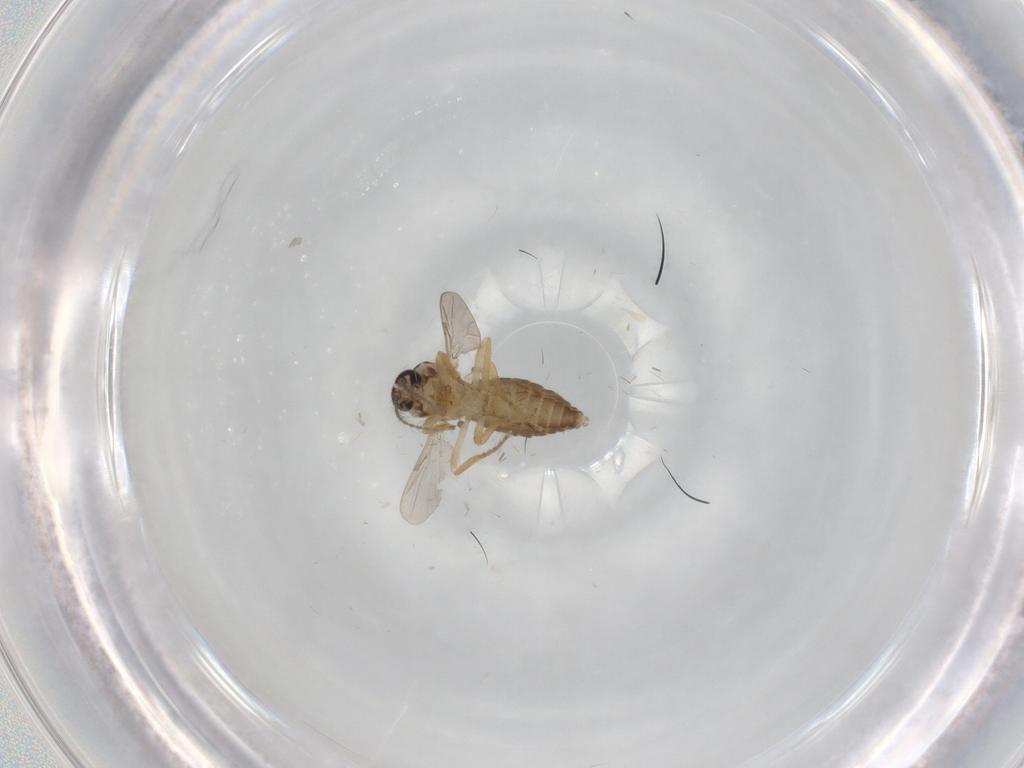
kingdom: Animalia
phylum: Arthropoda
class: Insecta
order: Diptera
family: Ceratopogonidae
